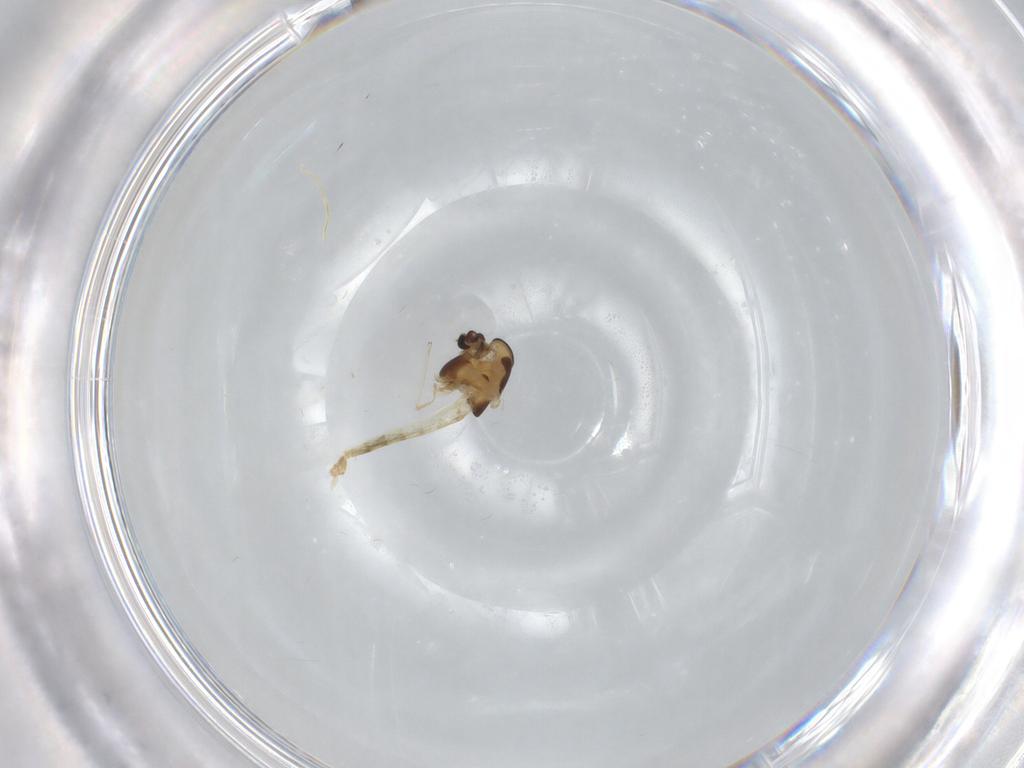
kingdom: Animalia
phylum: Arthropoda
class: Insecta
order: Diptera
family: Chironomidae
